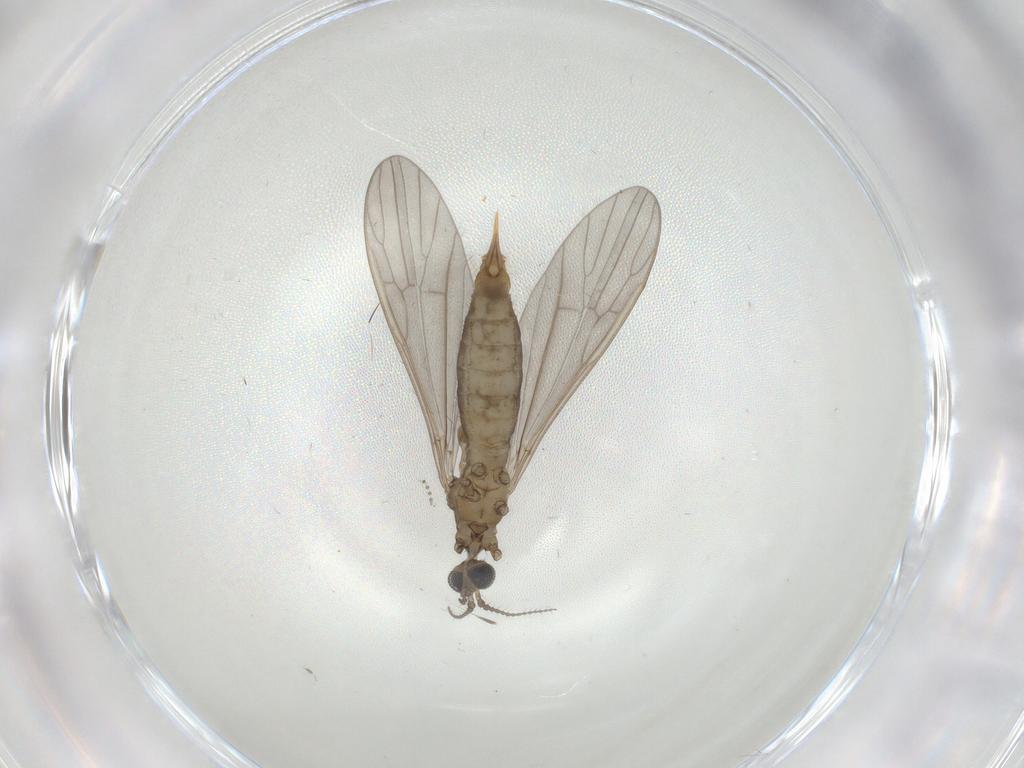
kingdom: Animalia
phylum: Arthropoda
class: Insecta
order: Diptera
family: Limoniidae
